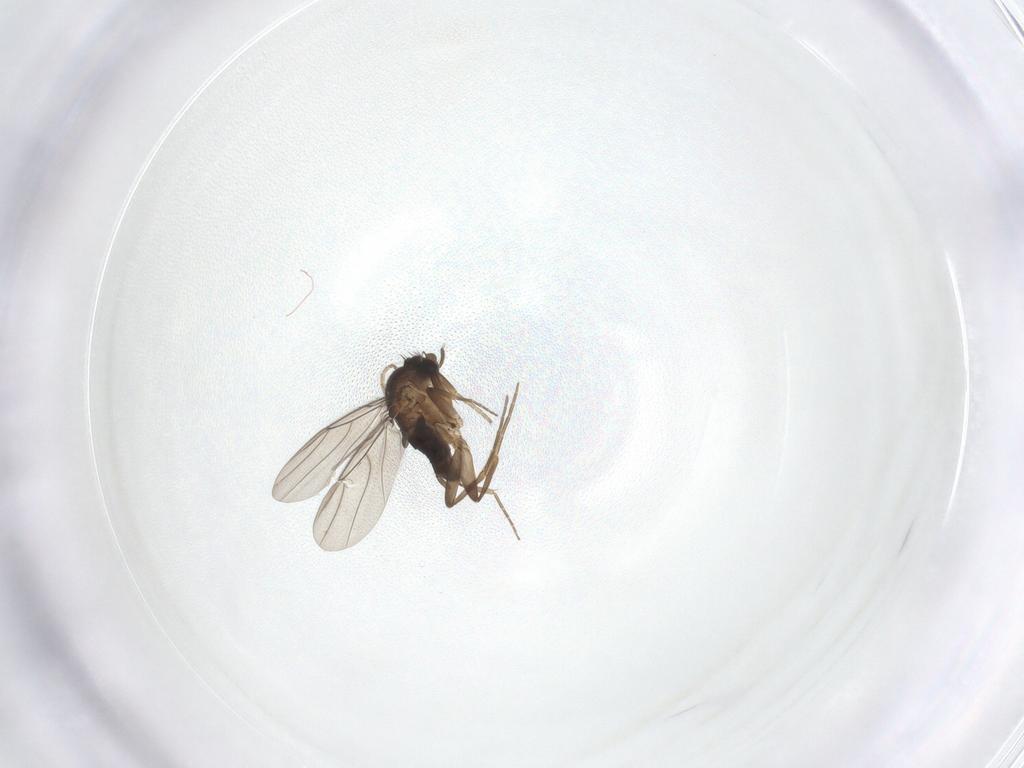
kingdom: Animalia
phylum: Arthropoda
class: Insecta
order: Diptera
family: Phoridae
